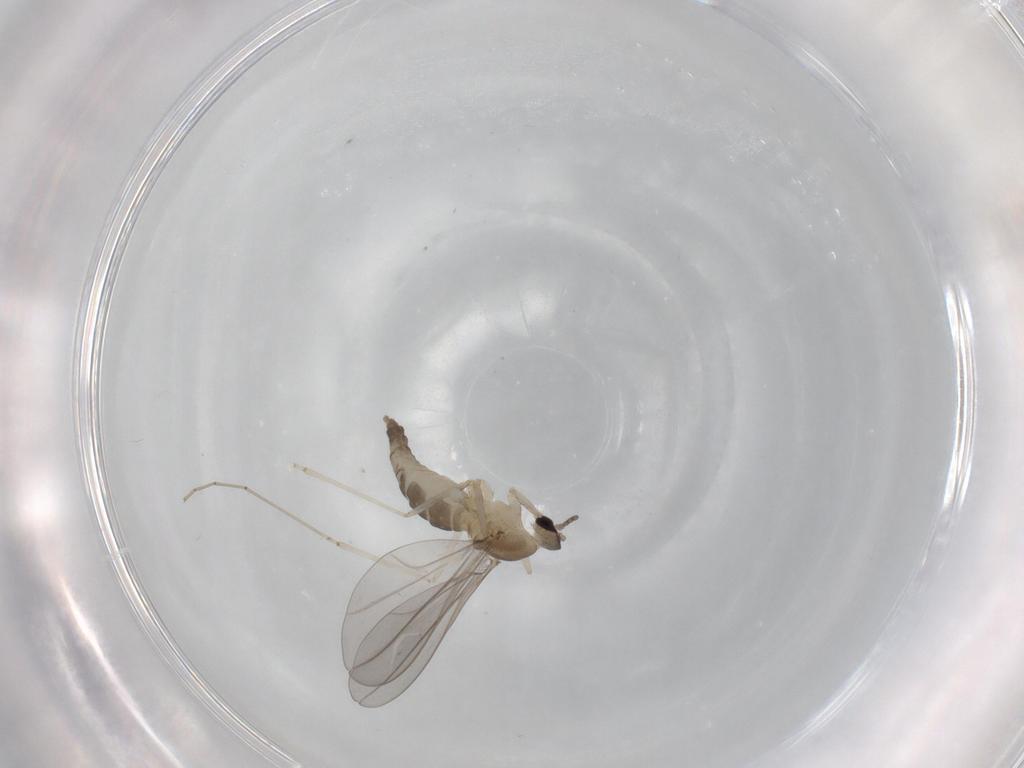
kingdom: Animalia
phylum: Arthropoda
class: Insecta
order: Diptera
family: Cecidomyiidae
